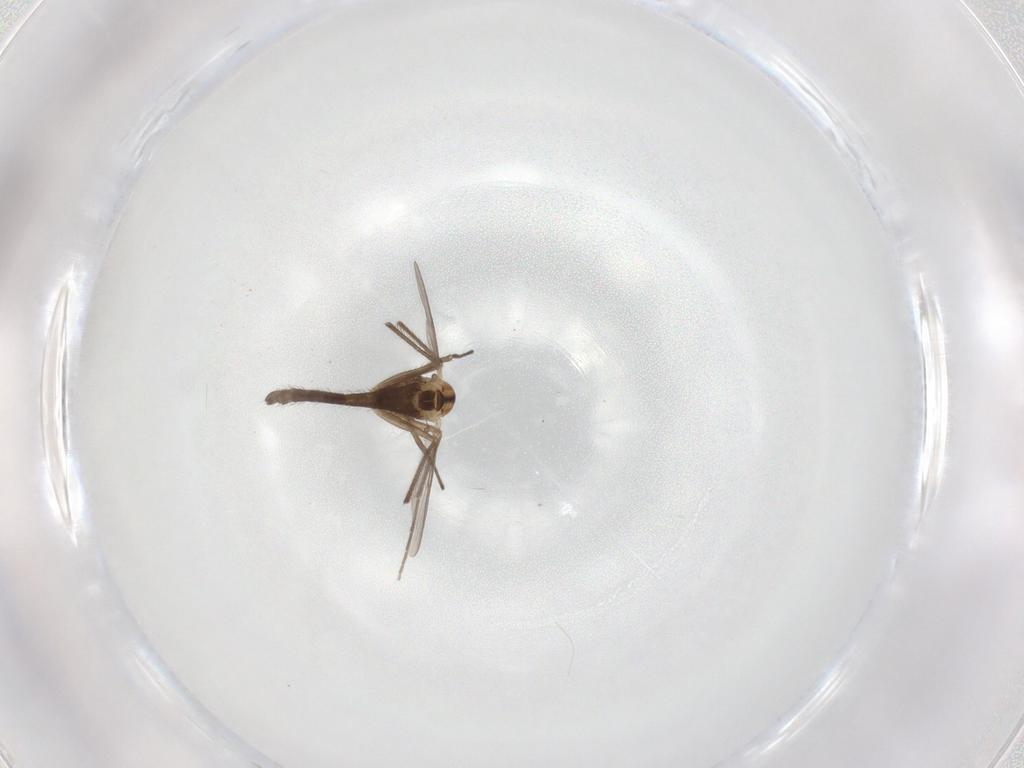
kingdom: Animalia
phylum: Arthropoda
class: Insecta
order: Diptera
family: Chironomidae
